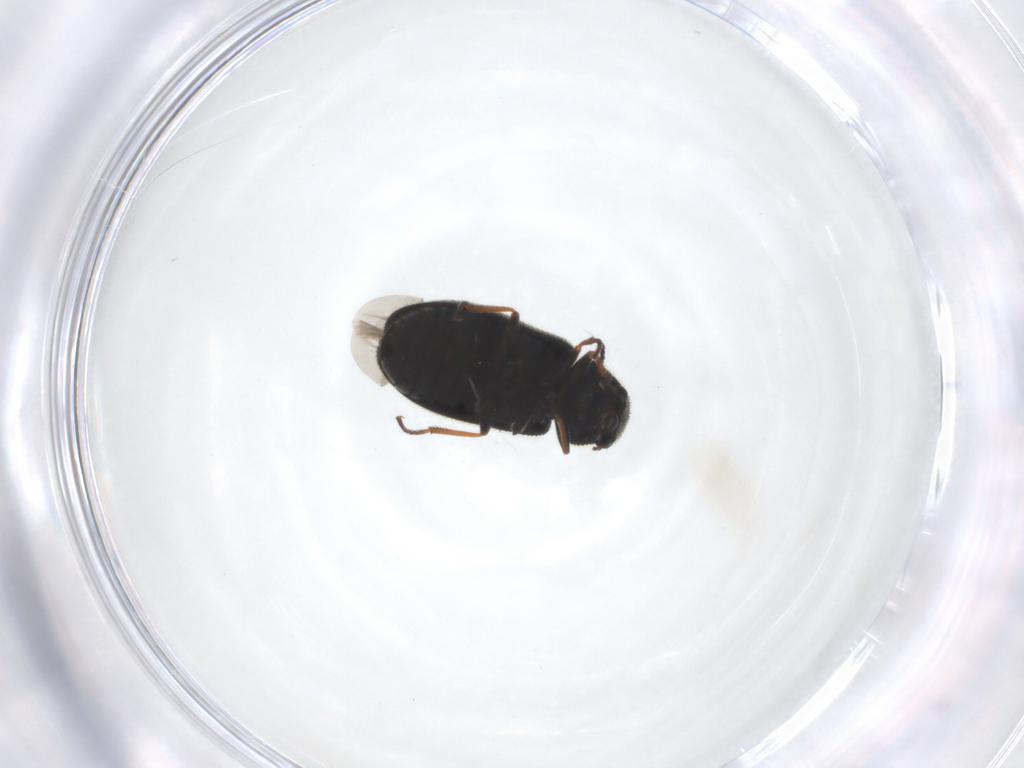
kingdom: Animalia
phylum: Arthropoda
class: Insecta
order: Coleoptera
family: Melyridae
